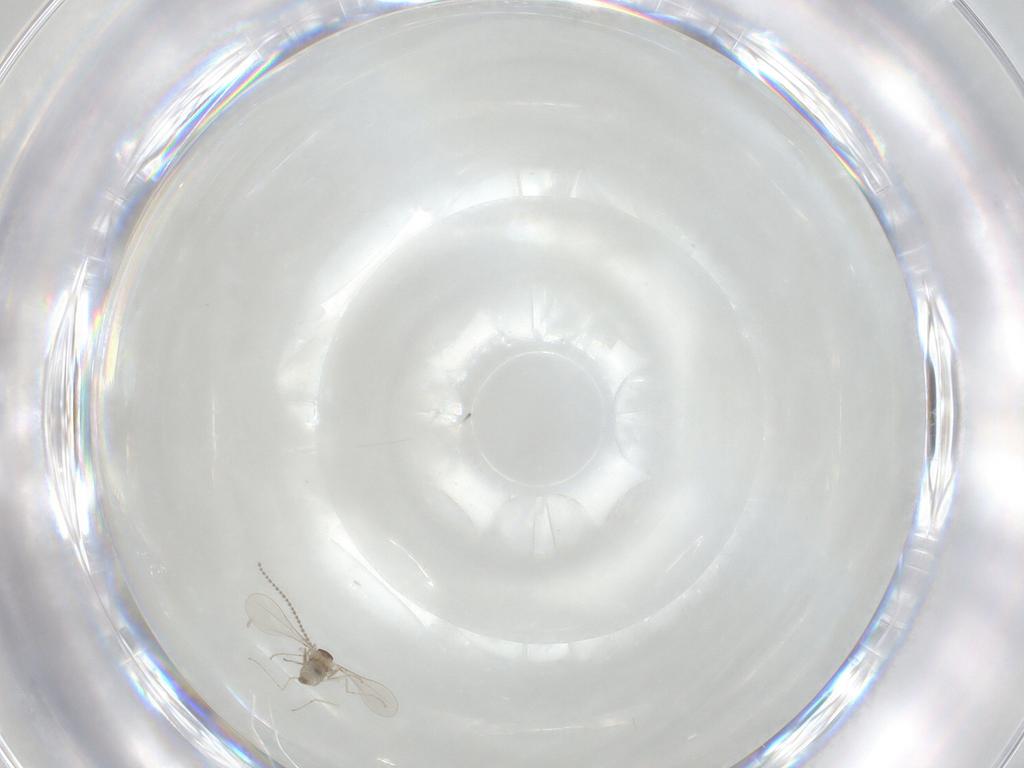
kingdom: Animalia
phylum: Arthropoda
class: Insecta
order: Diptera
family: Cecidomyiidae
